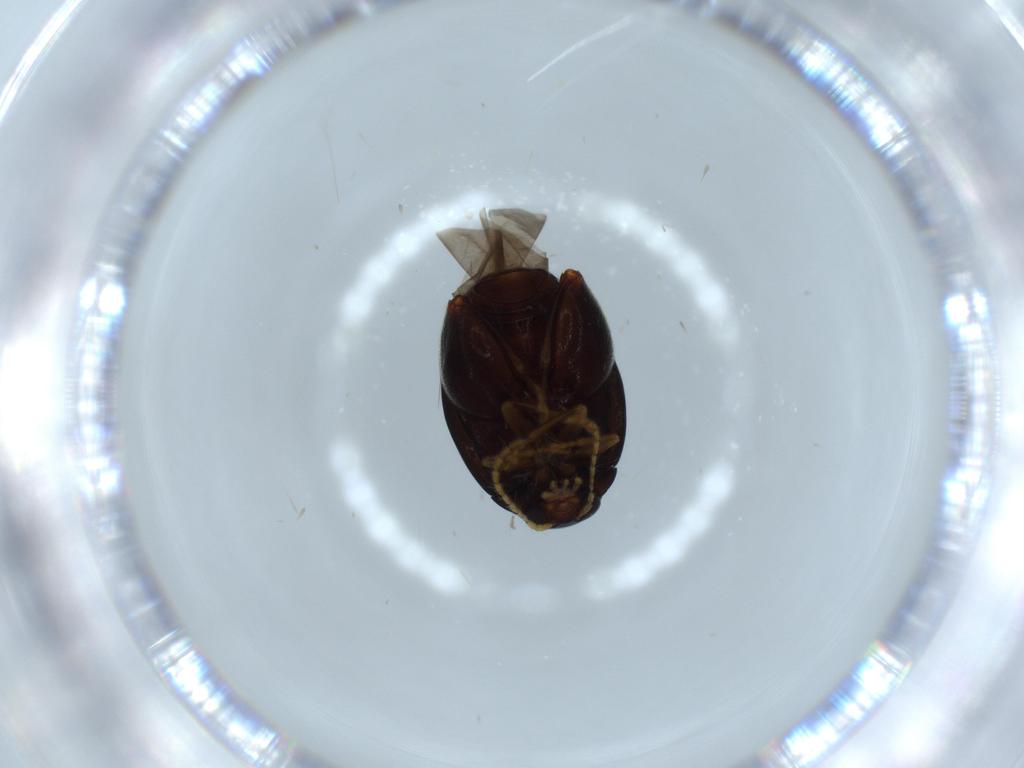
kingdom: Animalia
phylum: Arthropoda
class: Insecta
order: Coleoptera
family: Chrysomelidae
